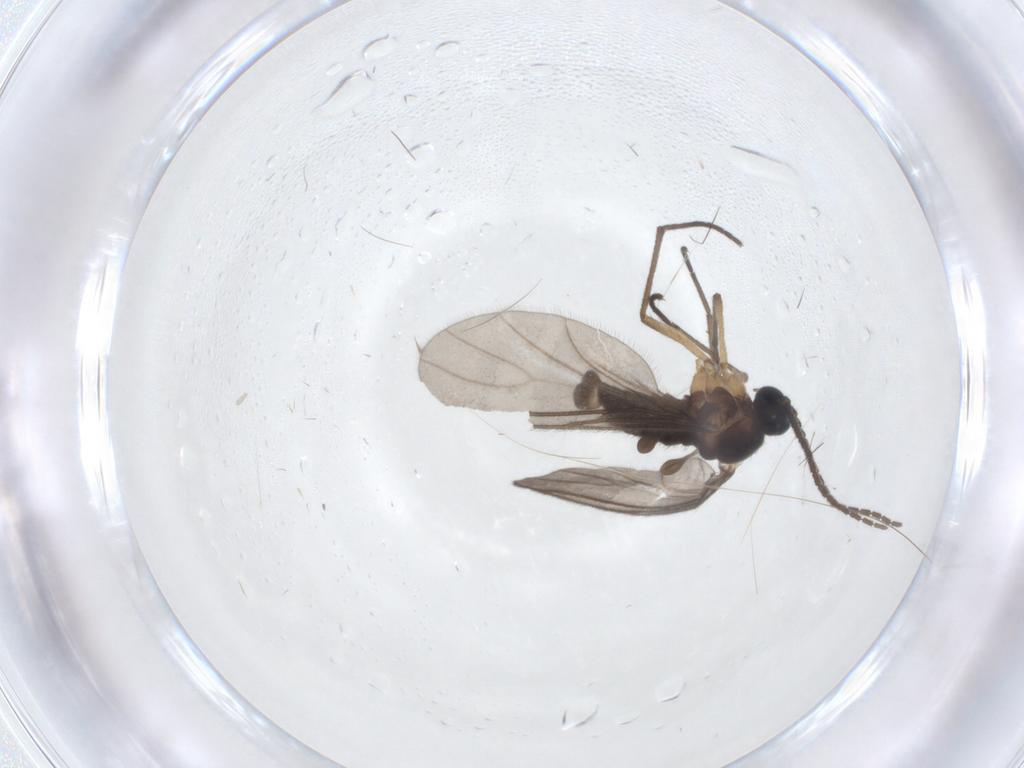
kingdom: Animalia
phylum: Arthropoda
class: Insecta
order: Diptera
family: Sciaridae
